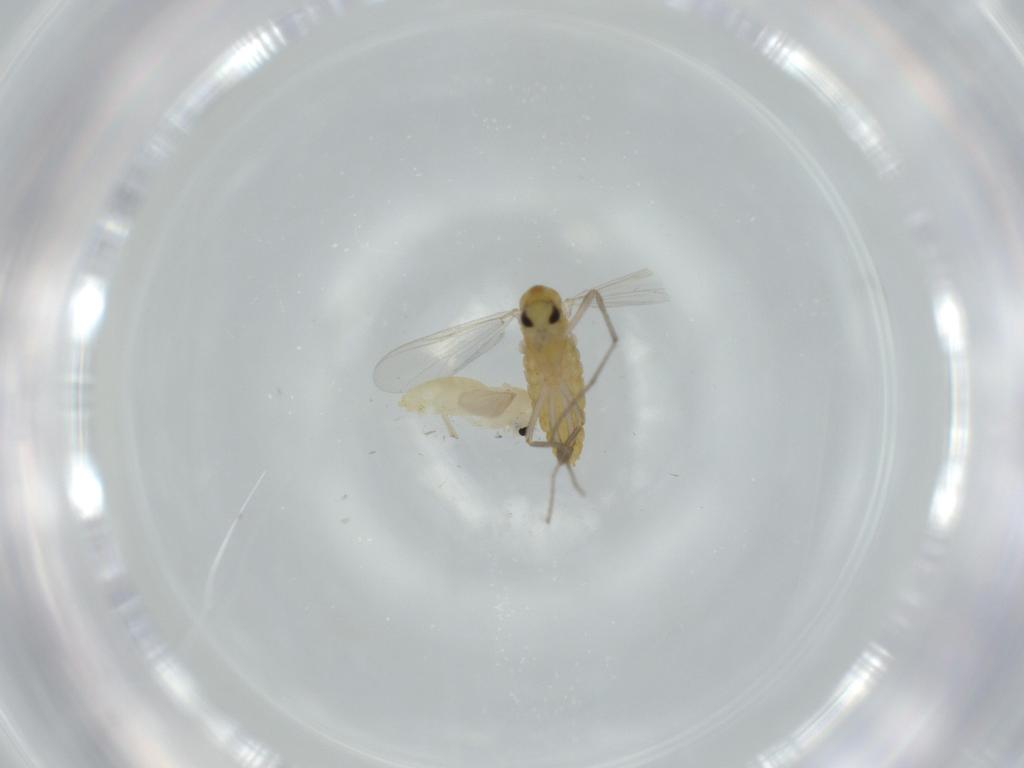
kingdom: Animalia
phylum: Arthropoda
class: Insecta
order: Diptera
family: Chironomidae
